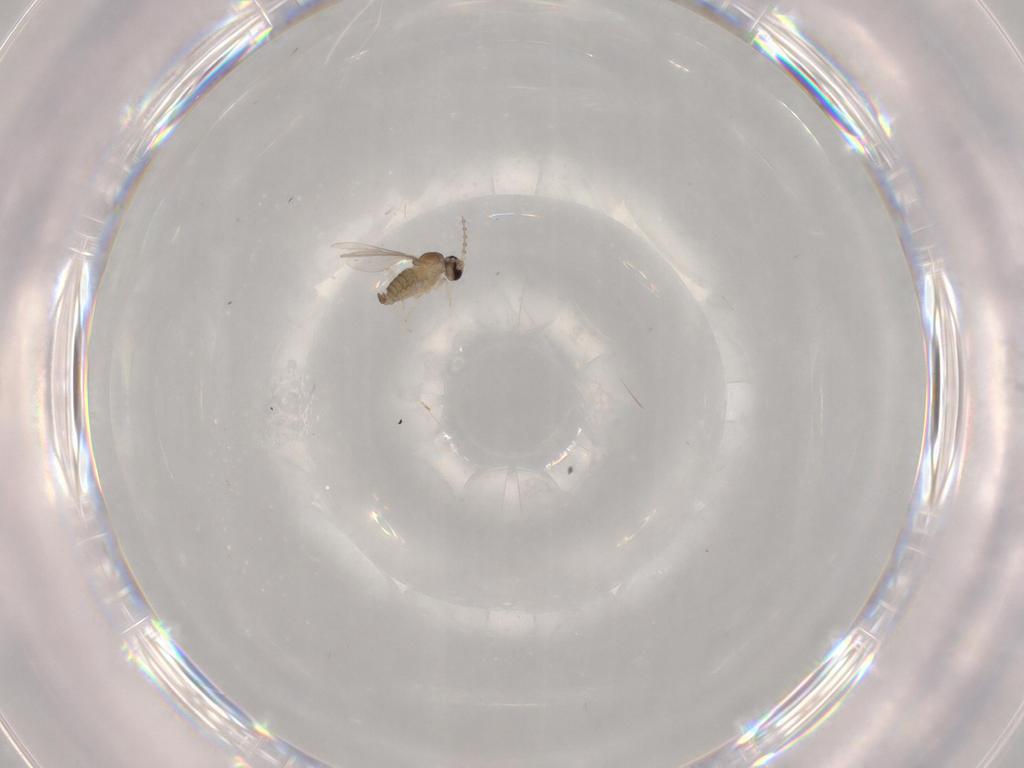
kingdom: Animalia
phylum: Arthropoda
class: Insecta
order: Diptera
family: Cecidomyiidae
